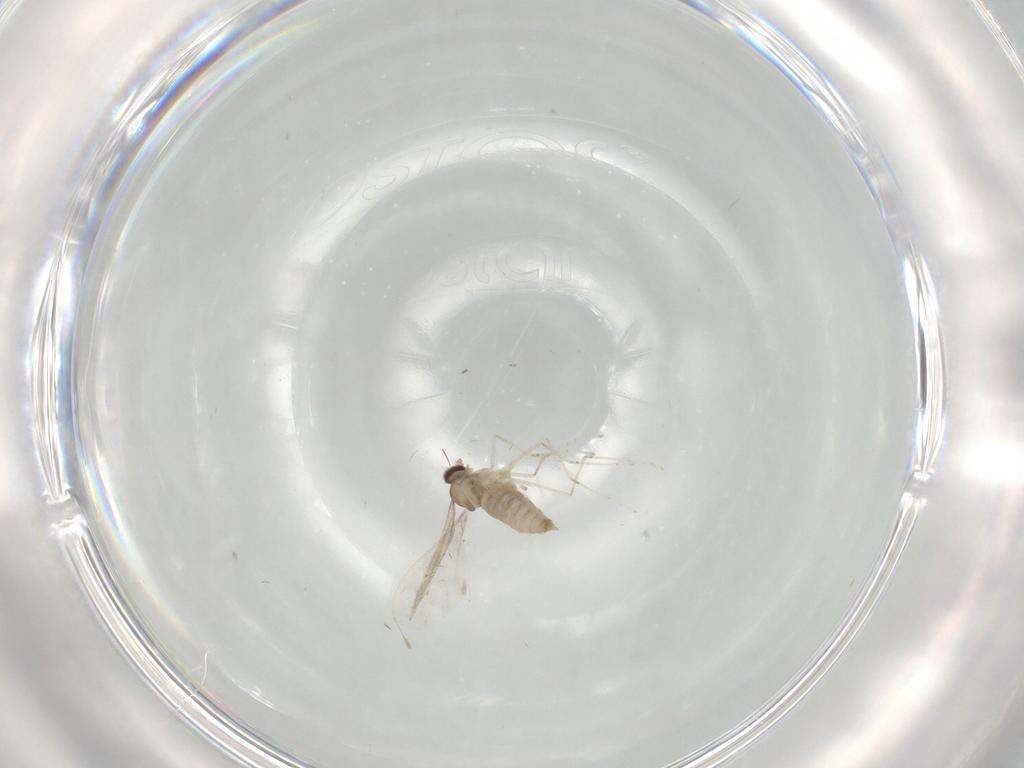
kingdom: Animalia
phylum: Arthropoda
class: Insecta
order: Diptera
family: Cecidomyiidae
